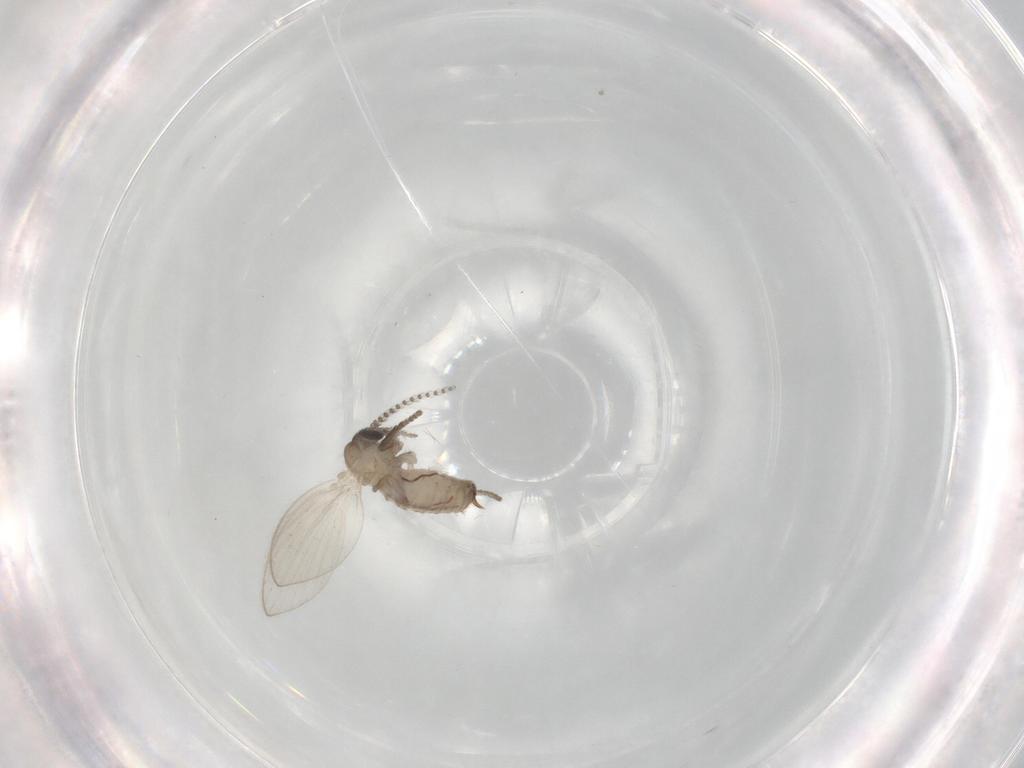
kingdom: Animalia
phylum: Arthropoda
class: Insecta
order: Diptera
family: Psychodidae
